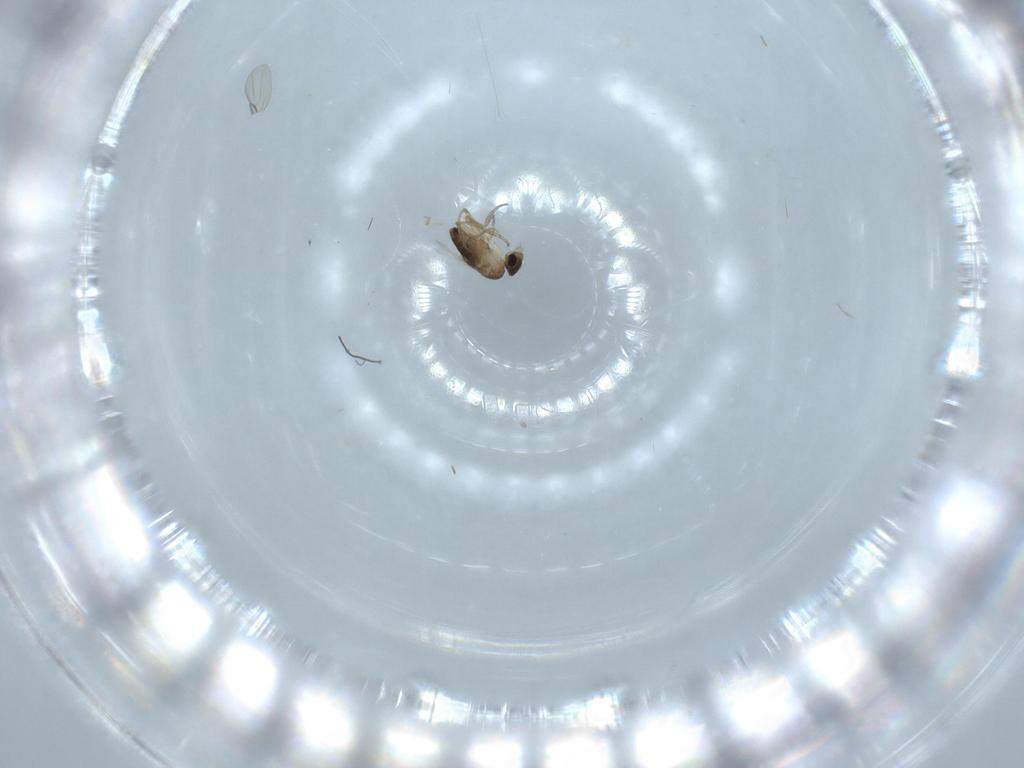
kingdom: Animalia
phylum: Arthropoda
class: Insecta
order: Diptera
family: Phoridae
